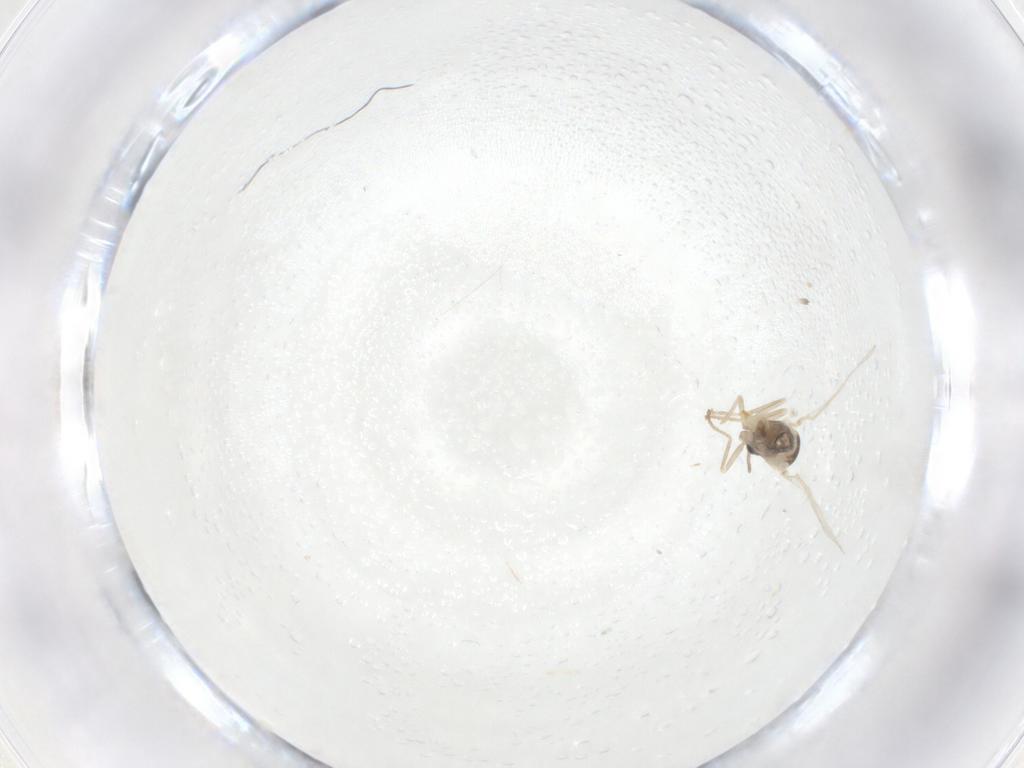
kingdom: Animalia
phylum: Arthropoda
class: Insecta
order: Diptera
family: Cecidomyiidae
